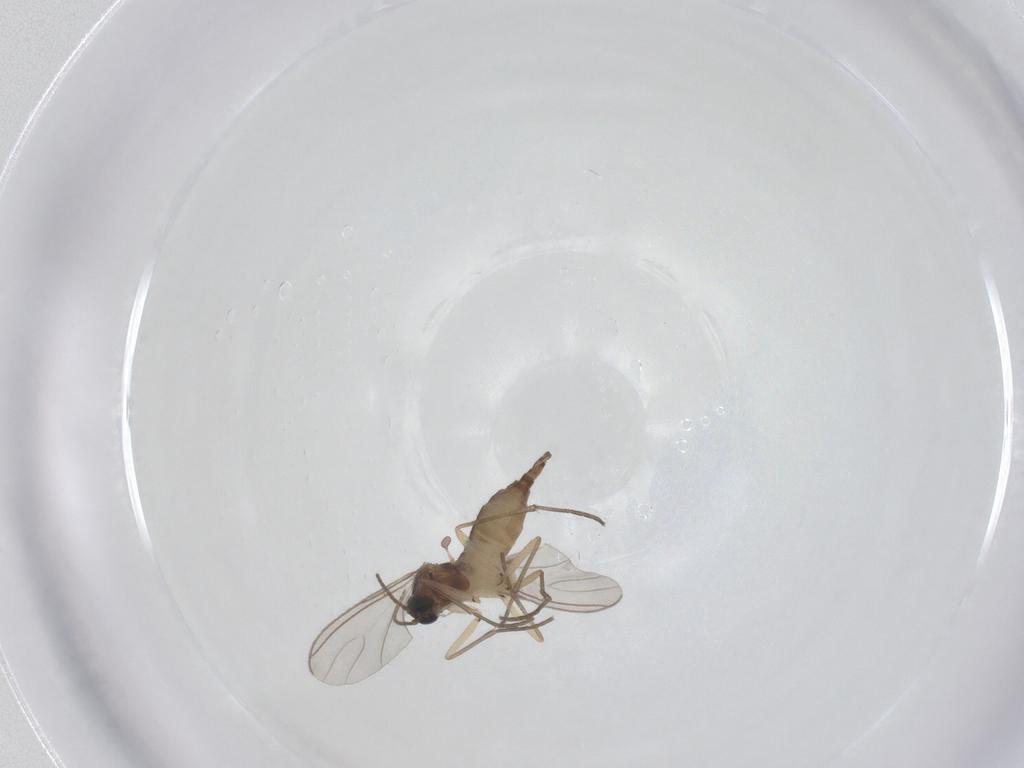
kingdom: Animalia
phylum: Arthropoda
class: Insecta
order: Diptera
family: Sciaridae
